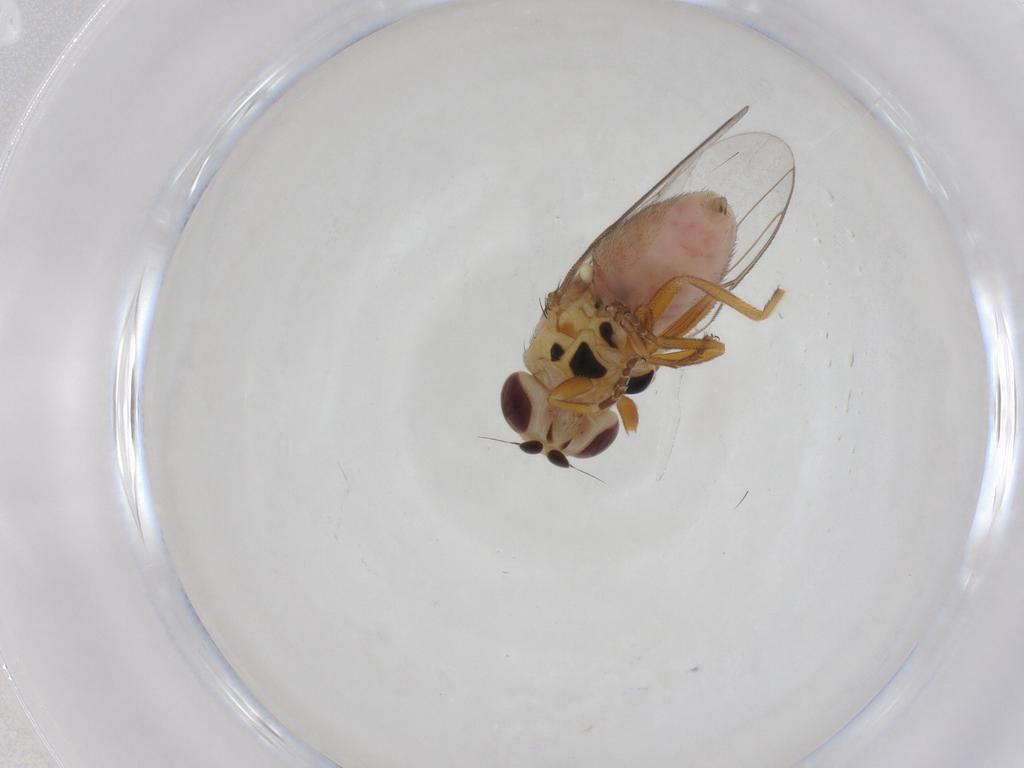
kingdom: Animalia
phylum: Arthropoda
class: Insecta
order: Diptera
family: Chloropidae
